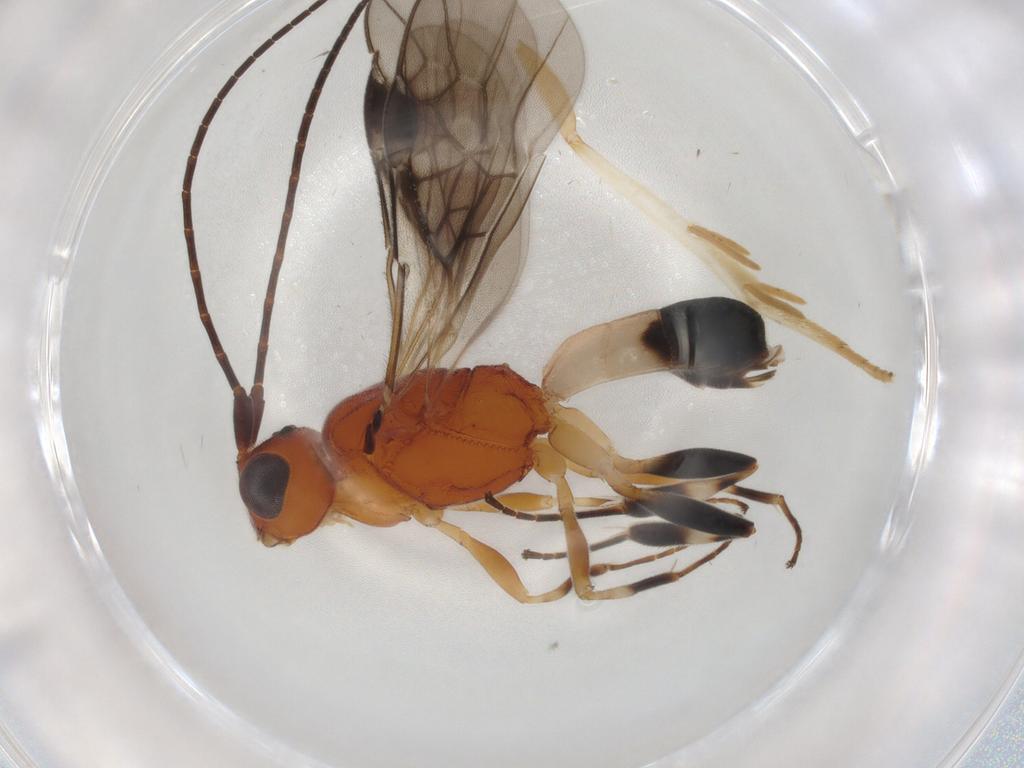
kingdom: Animalia
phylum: Arthropoda
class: Insecta
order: Hymenoptera
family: Braconidae
